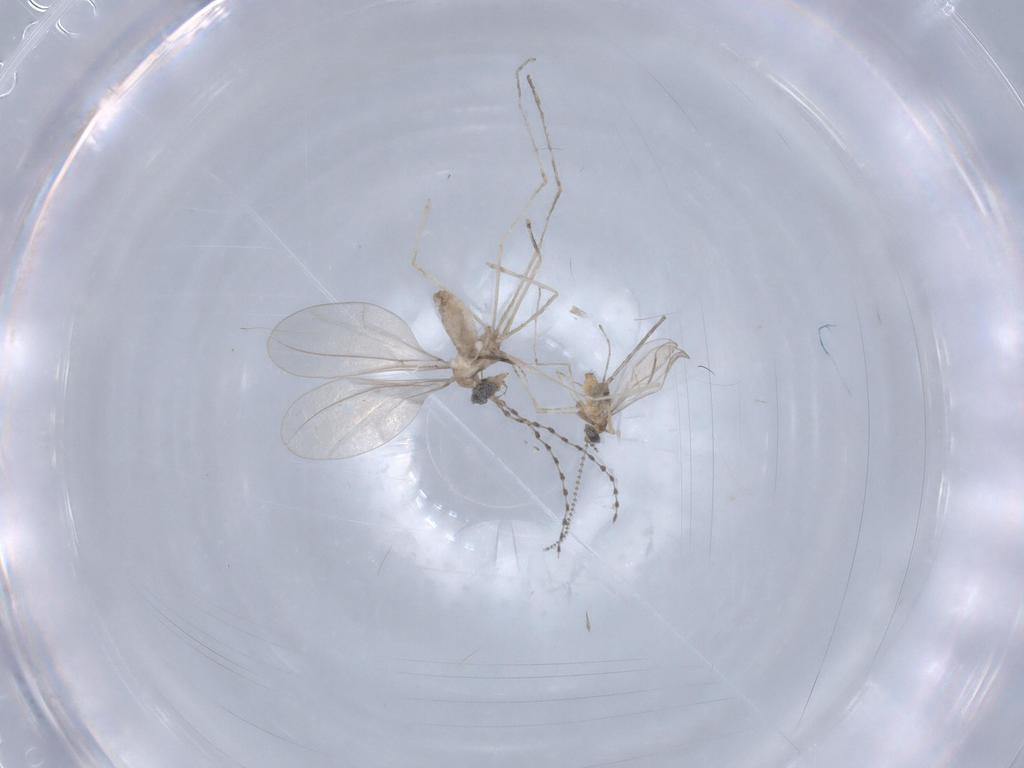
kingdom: Animalia
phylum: Arthropoda
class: Insecta
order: Diptera
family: Cecidomyiidae
